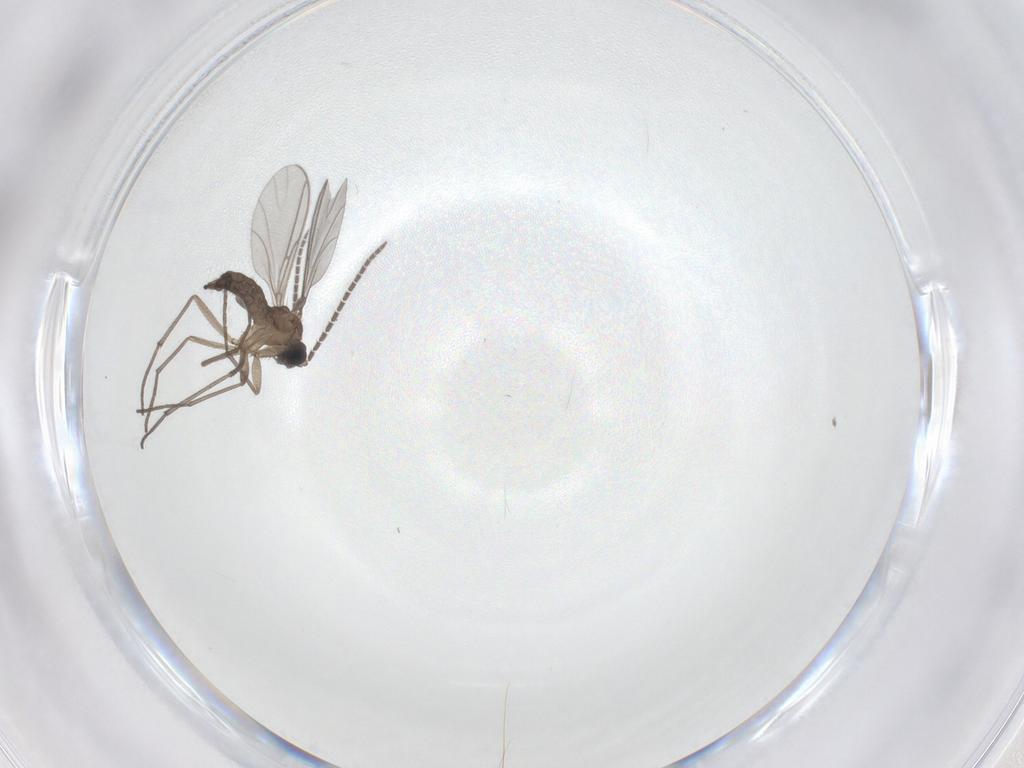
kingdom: Animalia
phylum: Arthropoda
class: Insecta
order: Diptera
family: Sciaridae
